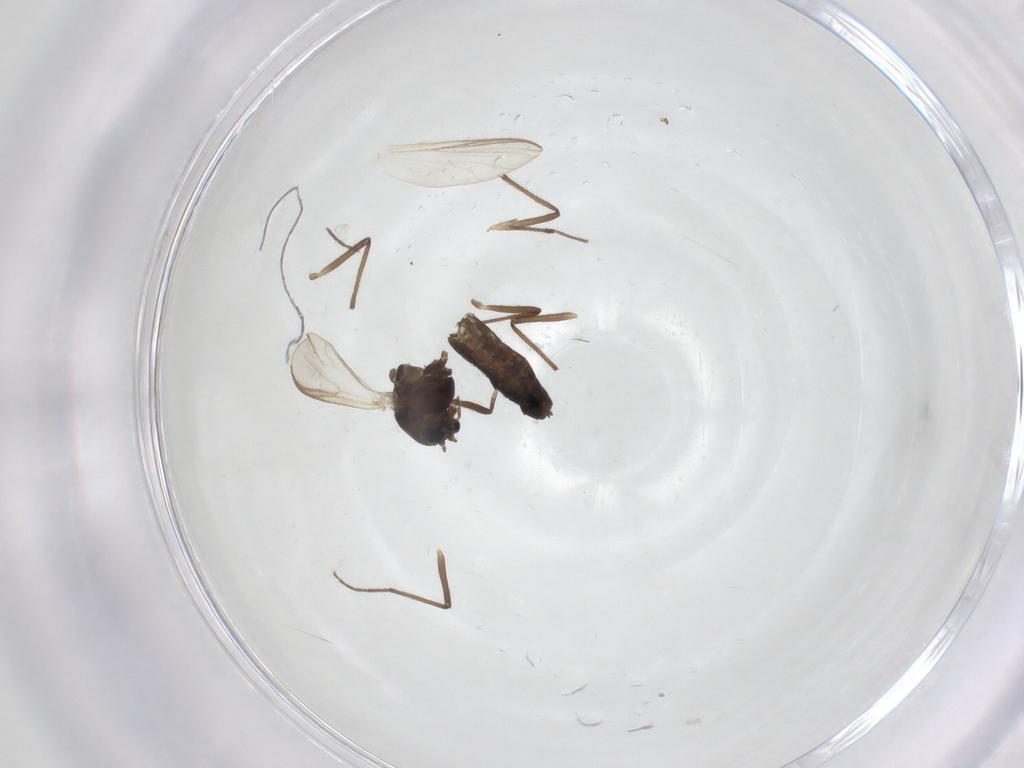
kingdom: Animalia
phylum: Arthropoda
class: Insecta
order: Diptera
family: Chironomidae
